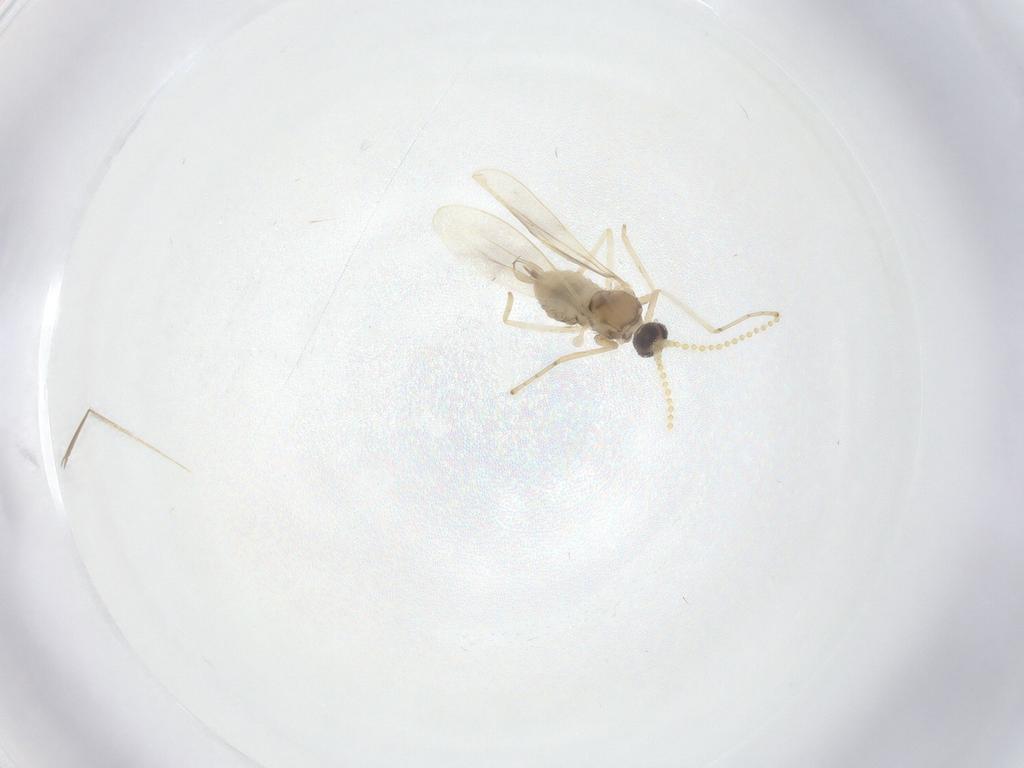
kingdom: Animalia
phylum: Arthropoda
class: Insecta
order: Diptera
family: Cecidomyiidae
